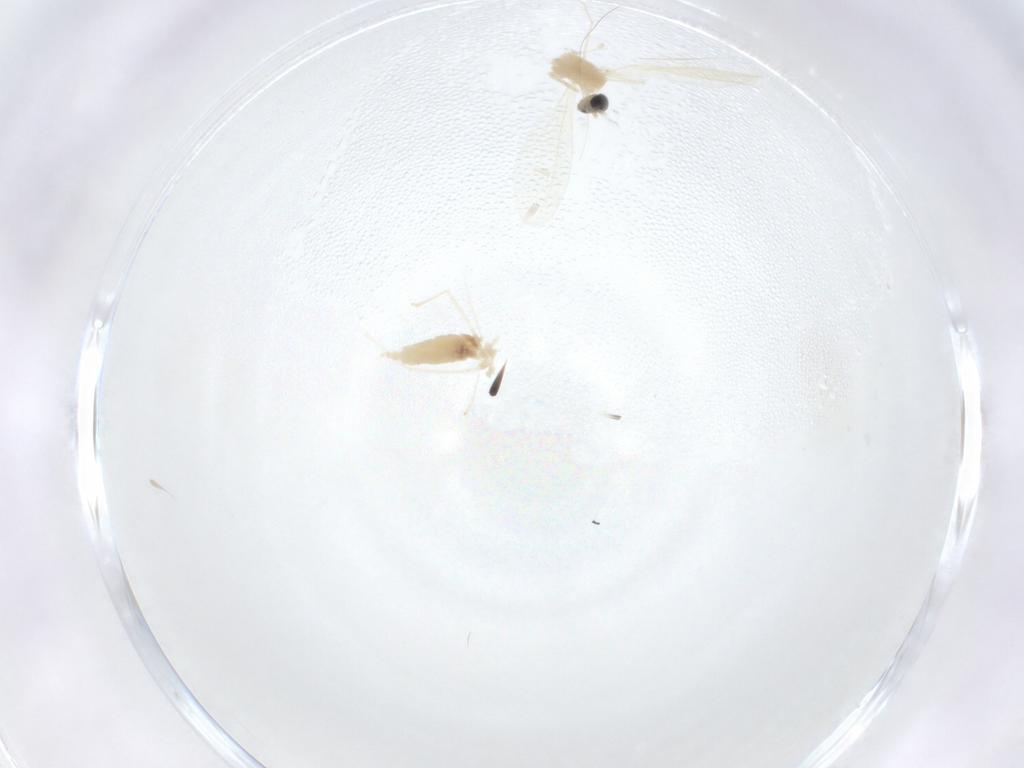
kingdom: Animalia
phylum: Arthropoda
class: Insecta
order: Diptera
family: Cecidomyiidae
